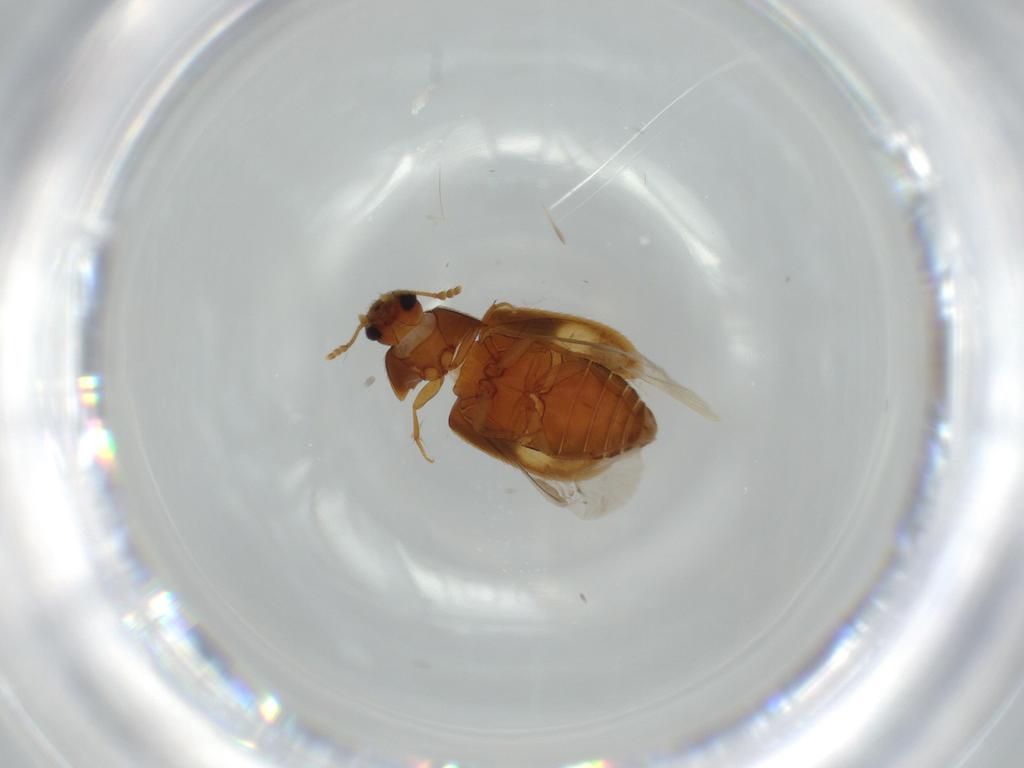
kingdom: Animalia
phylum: Arthropoda
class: Insecta
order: Coleoptera
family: Mycetophagidae
